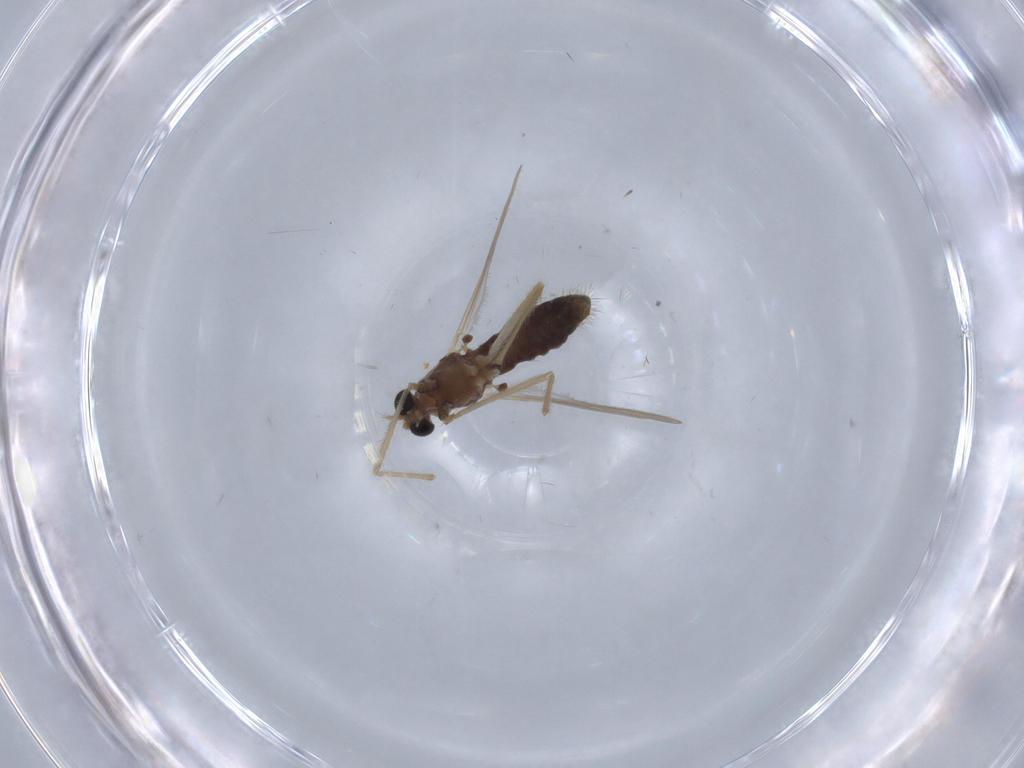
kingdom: Animalia
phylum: Arthropoda
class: Insecta
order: Diptera
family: Chironomidae
